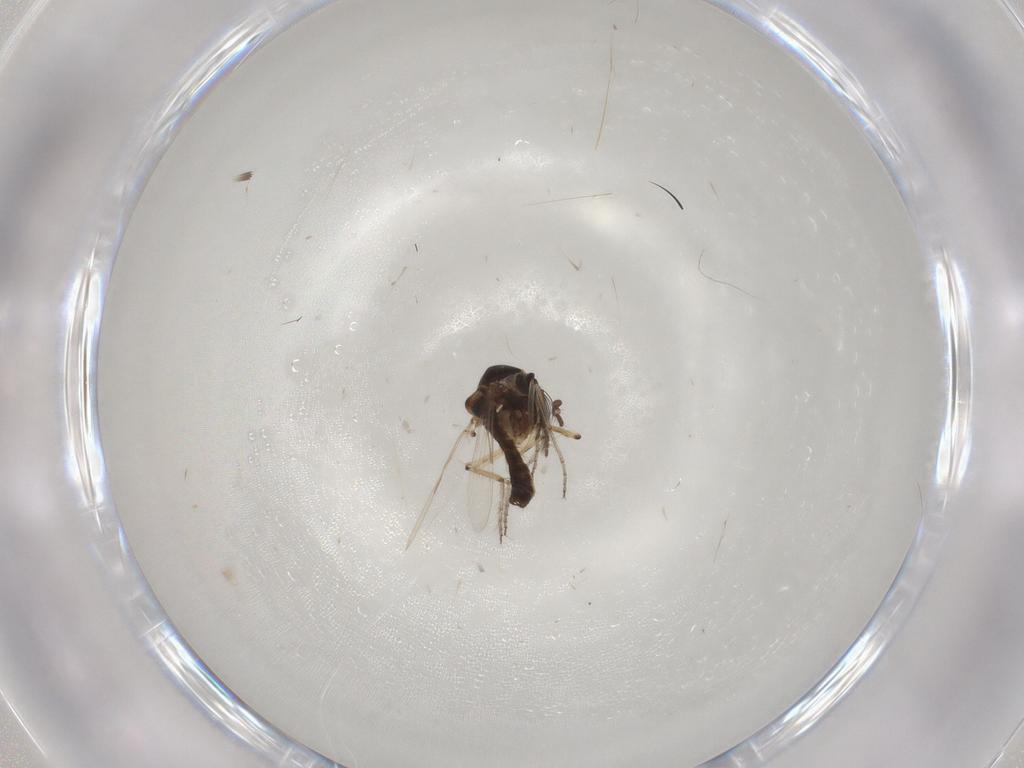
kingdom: Animalia
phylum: Arthropoda
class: Insecta
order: Diptera
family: Ceratopogonidae
